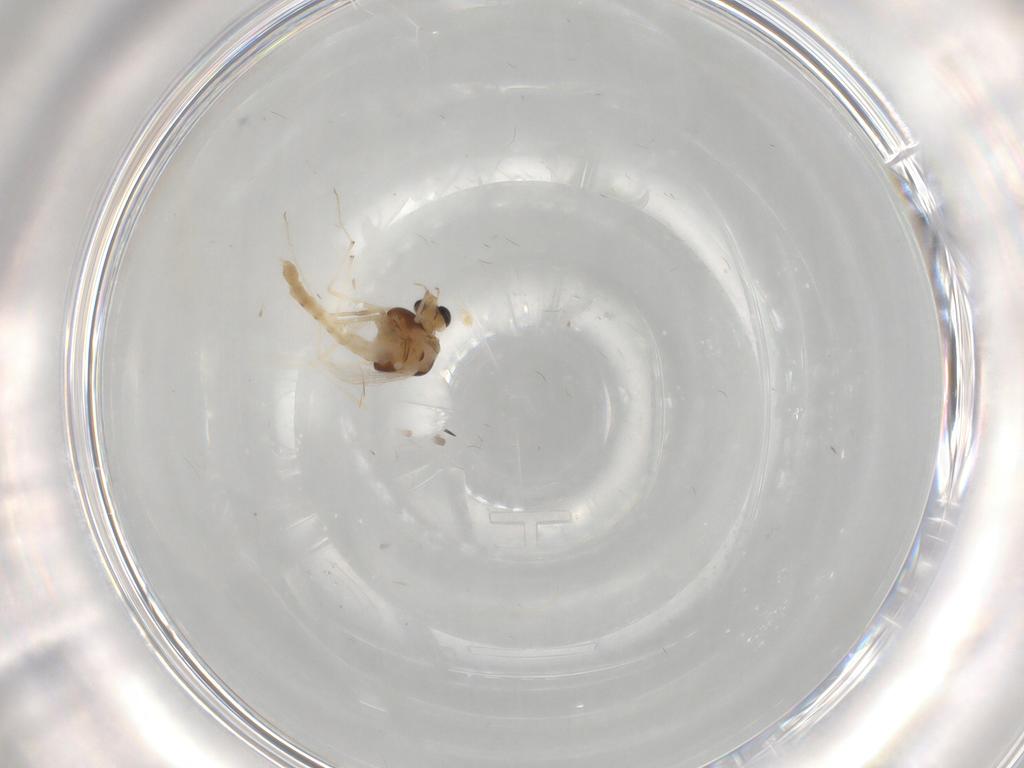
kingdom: Animalia
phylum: Arthropoda
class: Insecta
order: Diptera
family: Chironomidae
